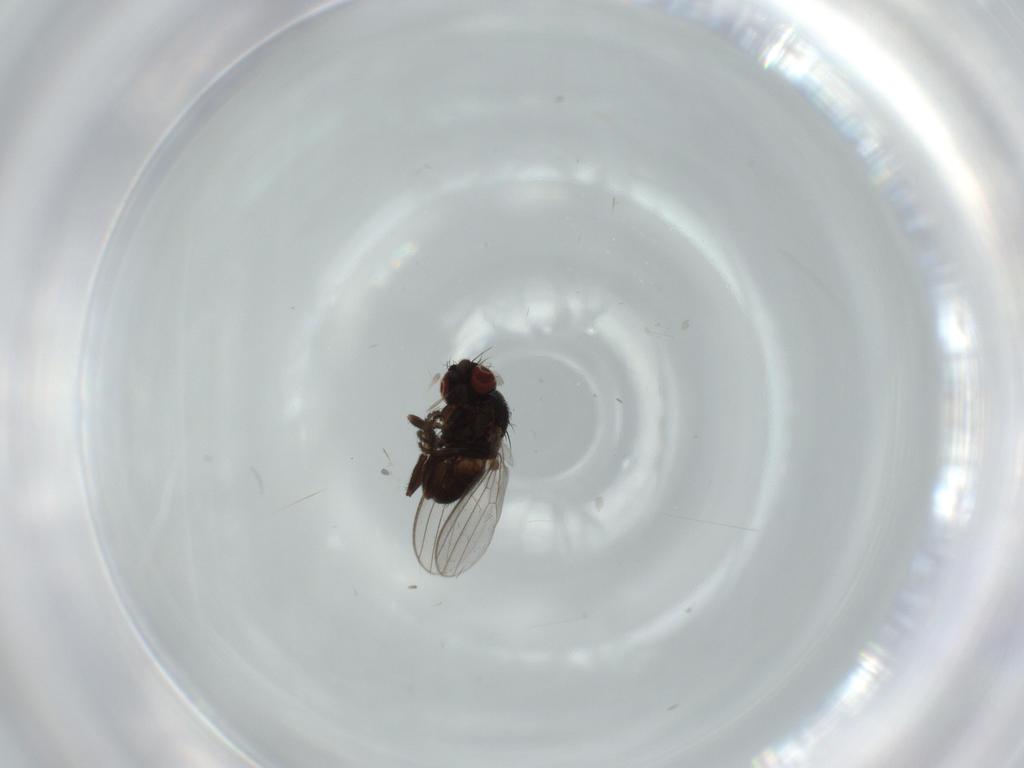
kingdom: Animalia
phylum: Arthropoda
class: Insecta
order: Diptera
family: Milichiidae
